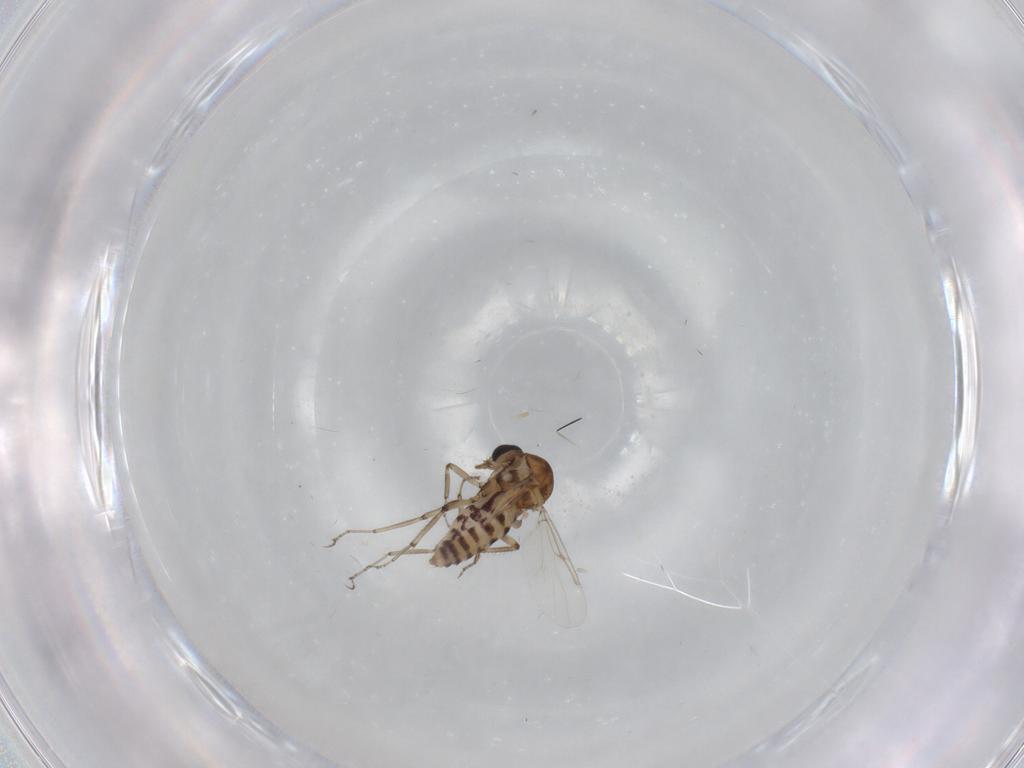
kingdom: Animalia
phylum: Arthropoda
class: Insecta
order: Diptera
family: Ceratopogonidae
